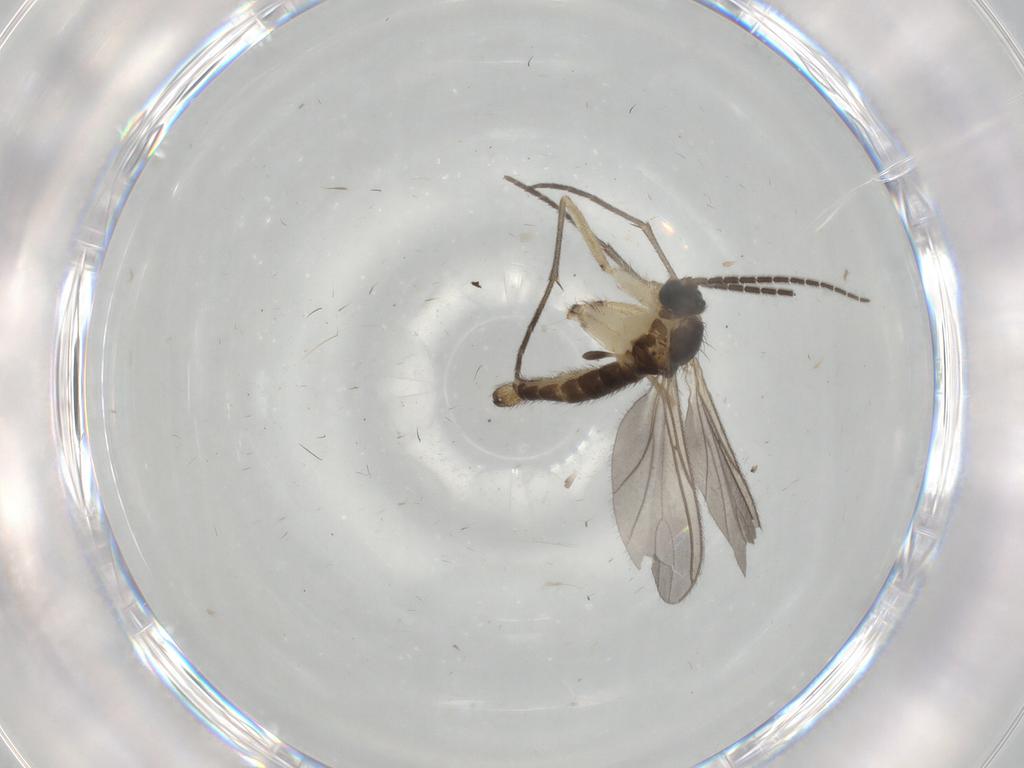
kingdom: Animalia
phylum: Arthropoda
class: Insecta
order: Diptera
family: Sciaridae
